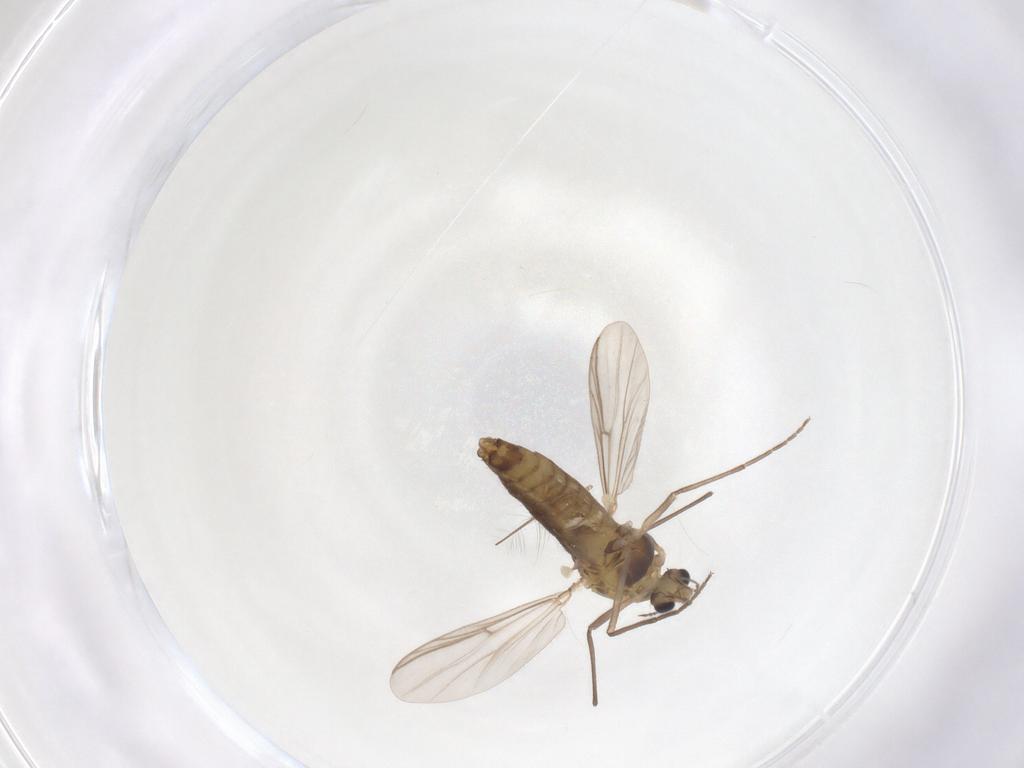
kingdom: Animalia
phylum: Arthropoda
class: Insecta
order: Diptera
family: Chironomidae
